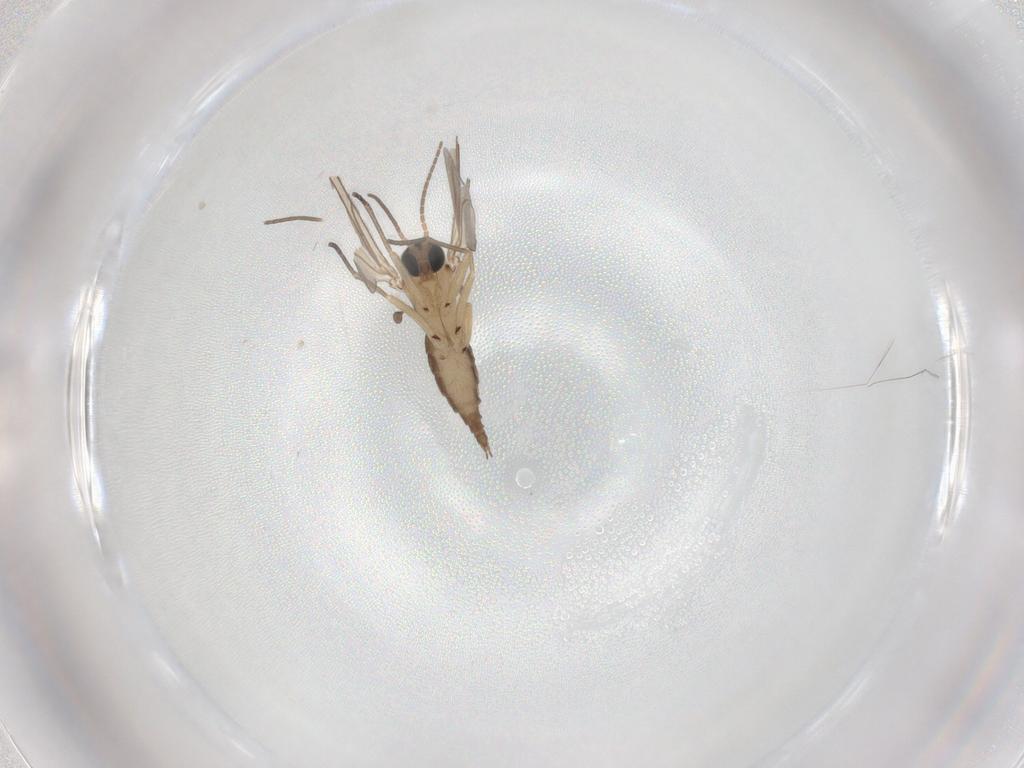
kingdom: Animalia
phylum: Arthropoda
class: Insecta
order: Diptera
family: Sciaridae
